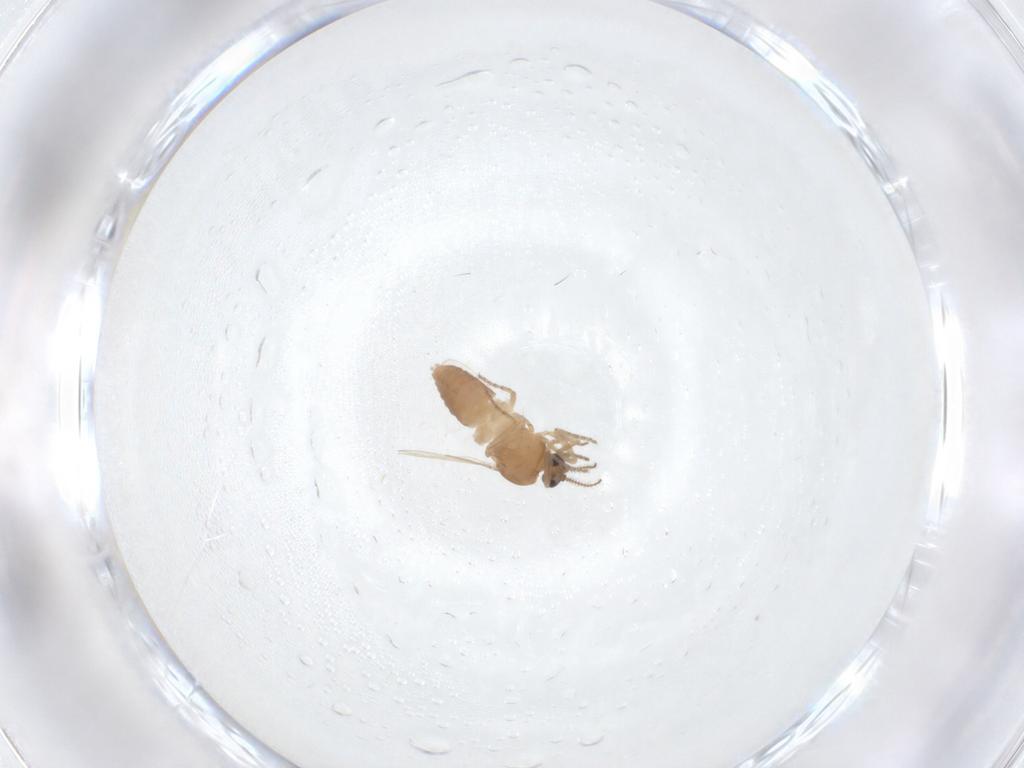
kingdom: Animalia
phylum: Arthropoda
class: Insecta
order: Diptera
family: Ceratopogonidae
